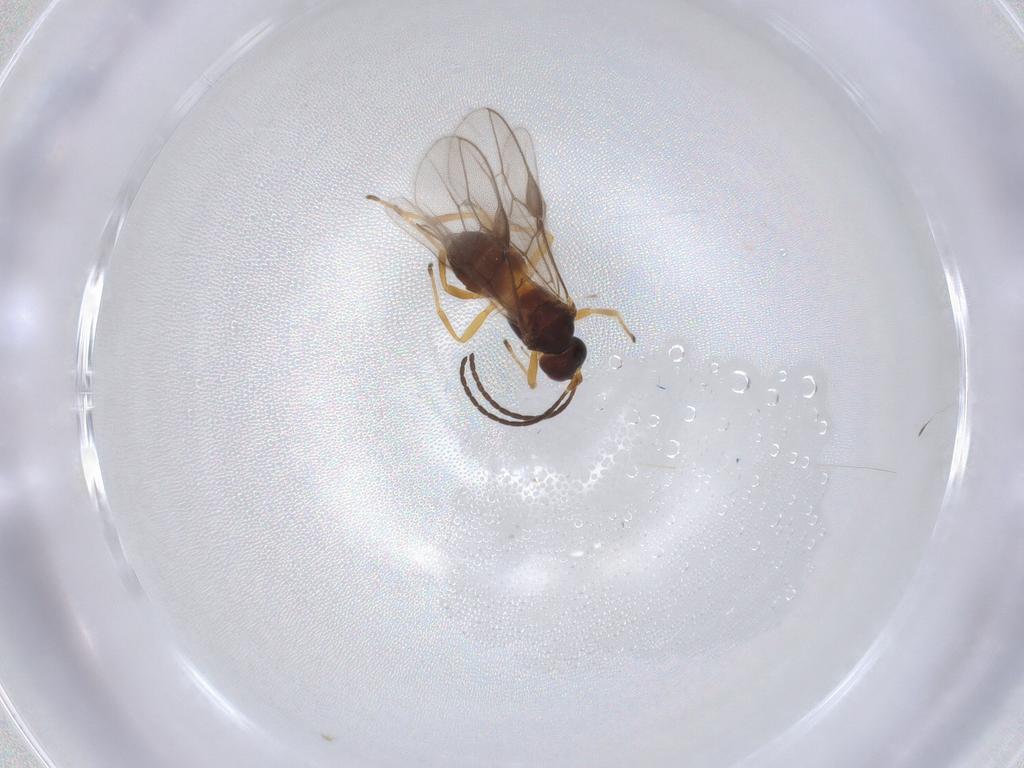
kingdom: Animalia
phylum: Arthropoda
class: Insecta
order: Hymenoptera
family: Braconidae
